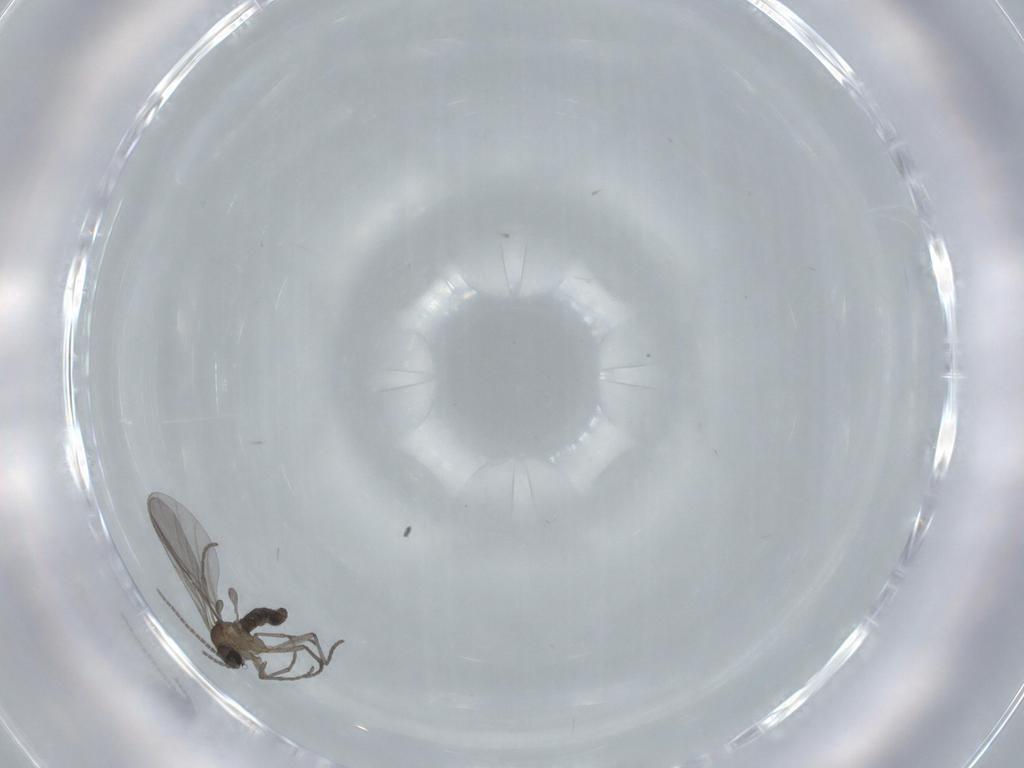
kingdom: Animalia
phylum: Arthropoda
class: Insecta
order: Diptera
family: Sciaridae
